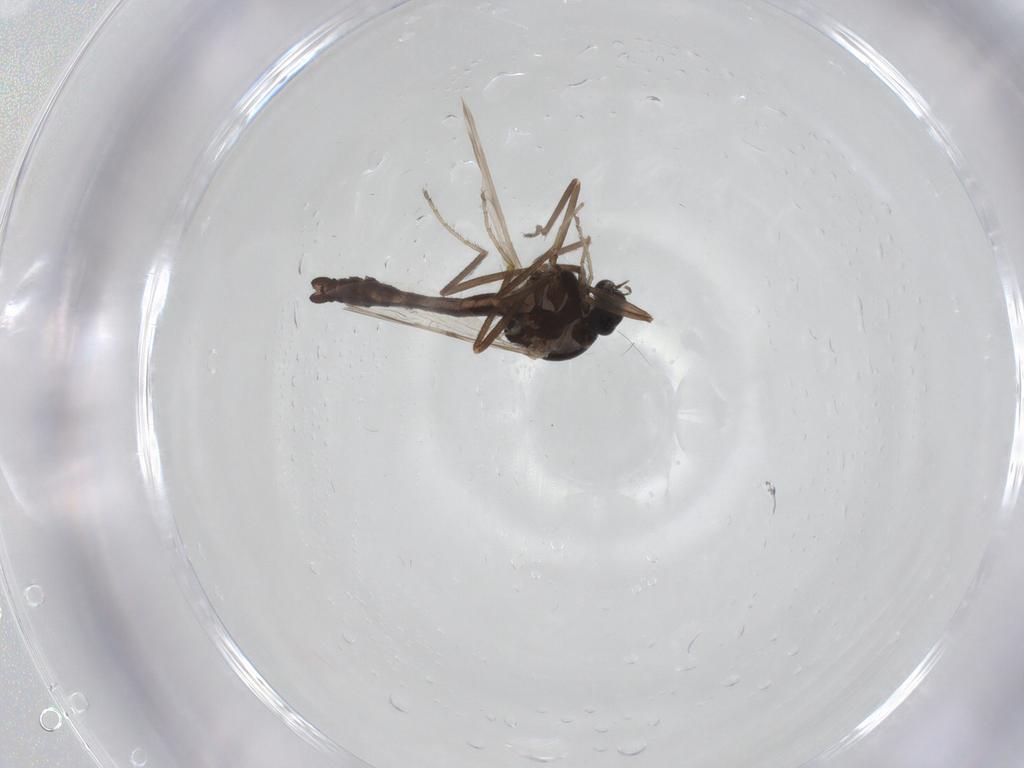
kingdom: Animalia
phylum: Arthropoda
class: Insecta
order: Diptera
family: Ceratopogonidae
